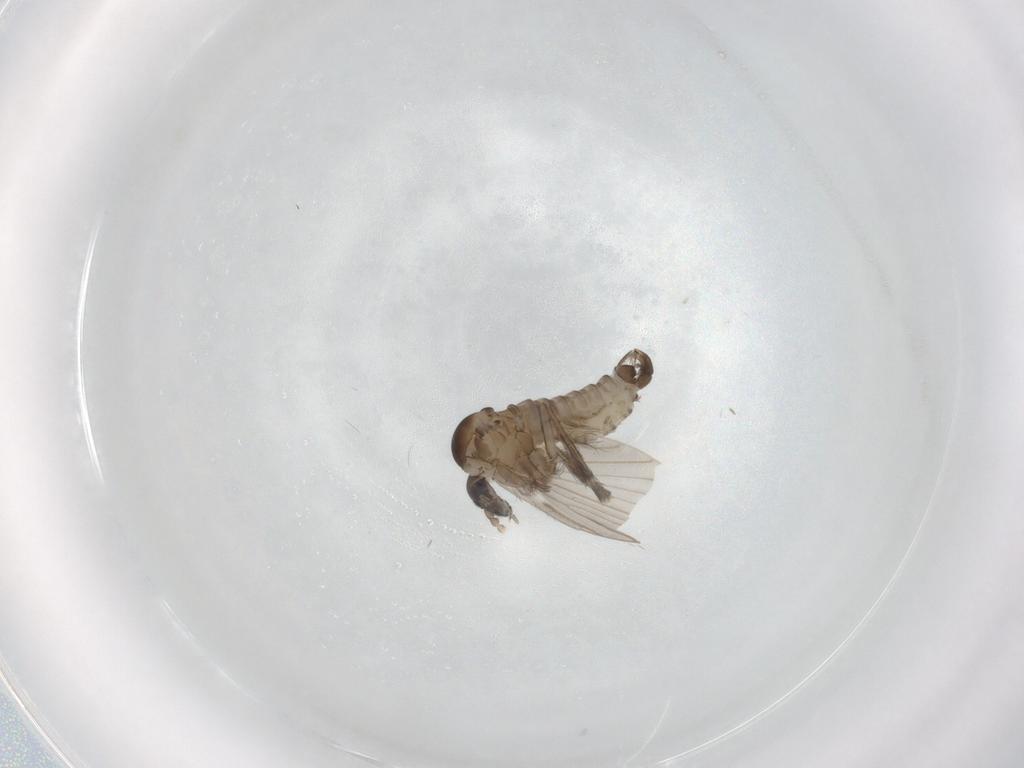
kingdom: Animalia
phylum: Arthropoda
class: Insecta
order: Diptera
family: Psychodidae
